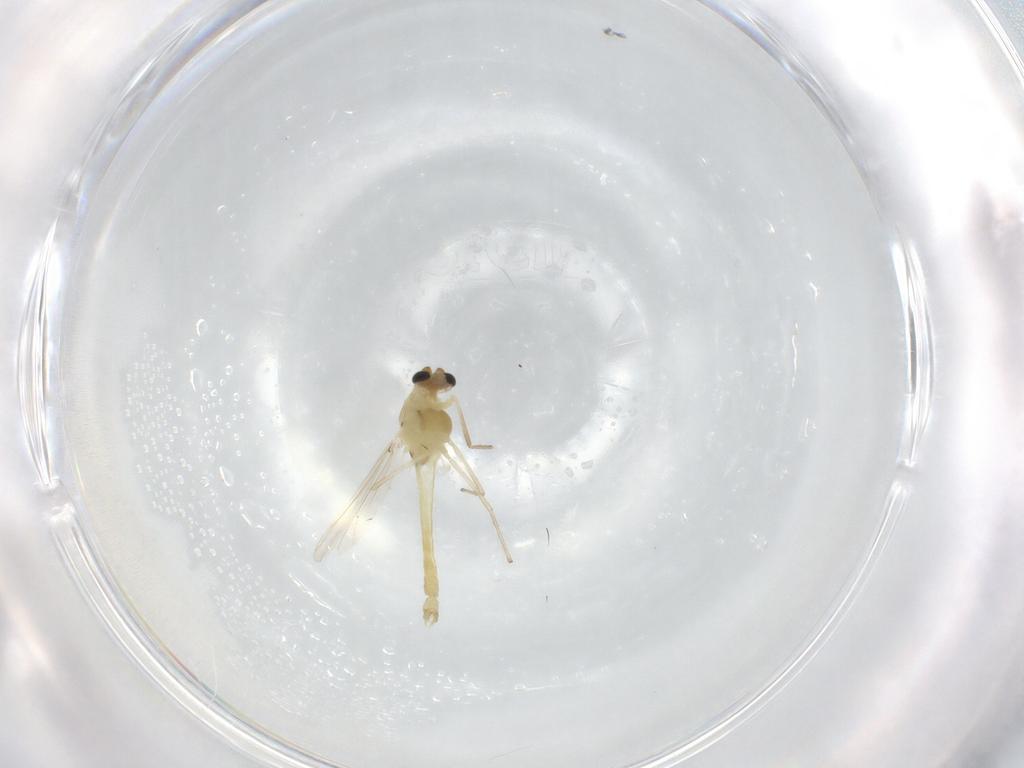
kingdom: Animalia
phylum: Arthropoda
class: Insecta
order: Diptera
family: Chironomidae
